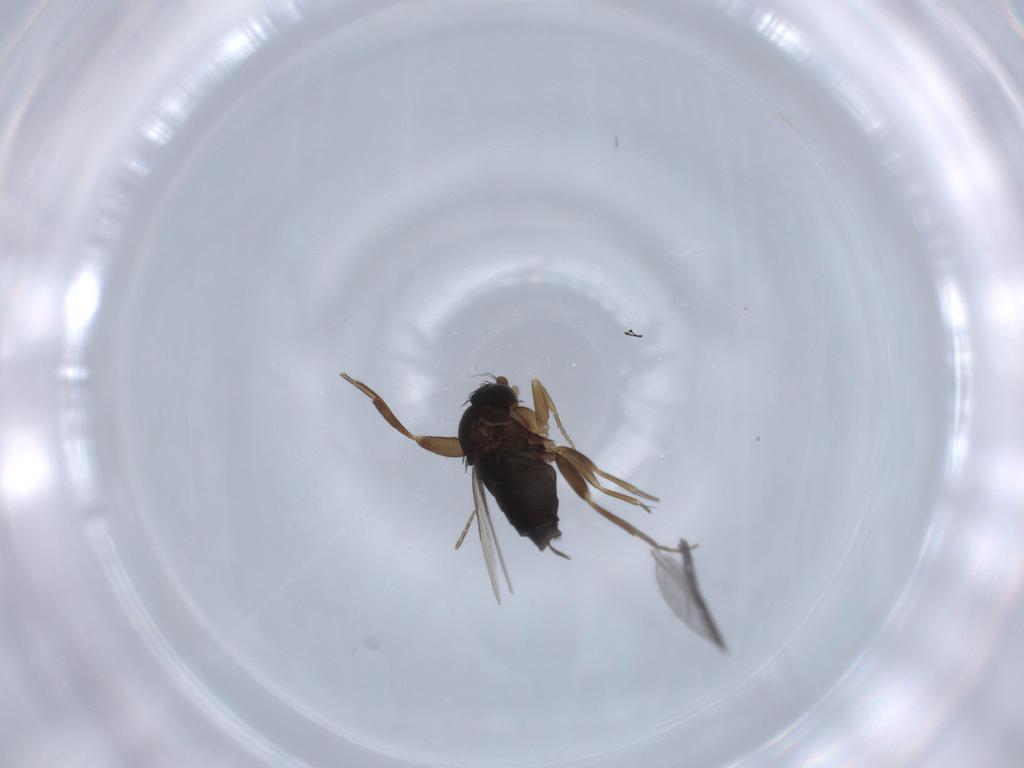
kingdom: Animalia
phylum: Arthropoda
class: Insecta
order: Diptera
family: Phoridae
